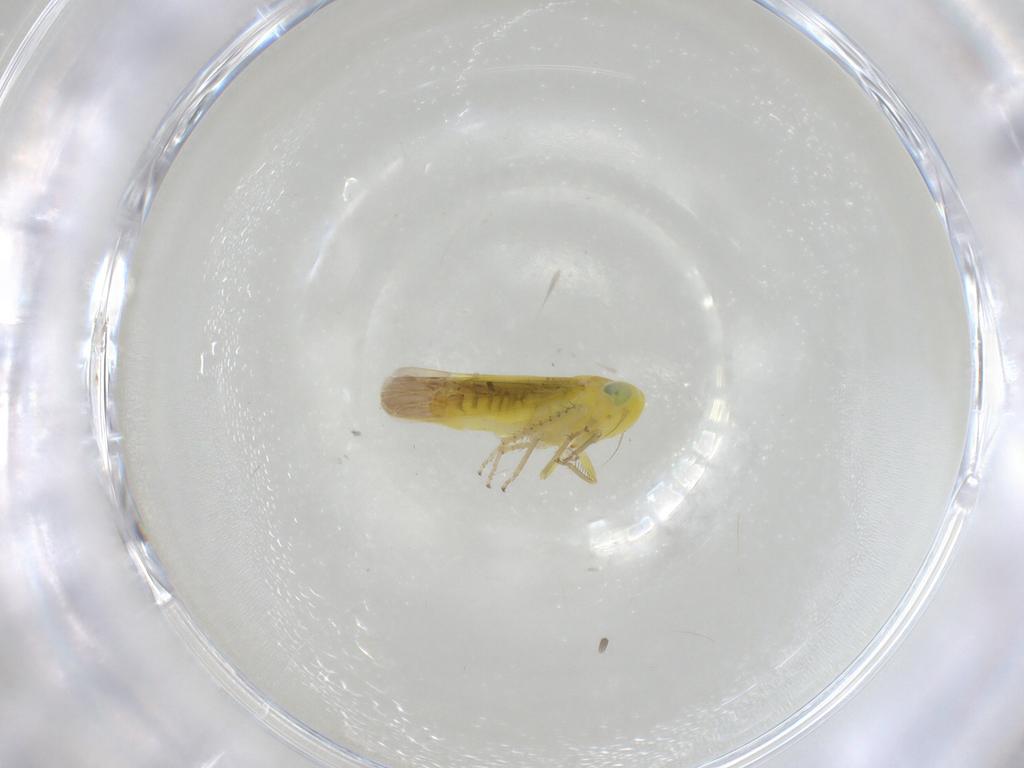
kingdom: Animalia
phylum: Arthropoda
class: Insecta
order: Hemiptera
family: Cicadellidae
